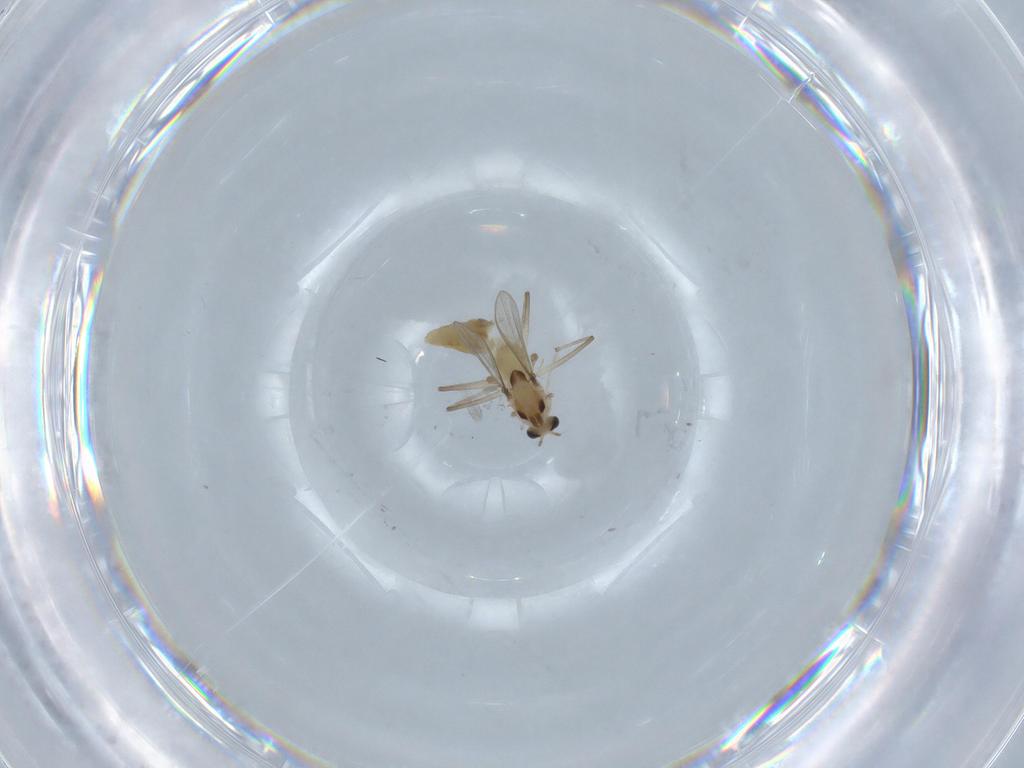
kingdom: Animalia
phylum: Arthropoda
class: Insecta
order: Diptera
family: Chironomidae
